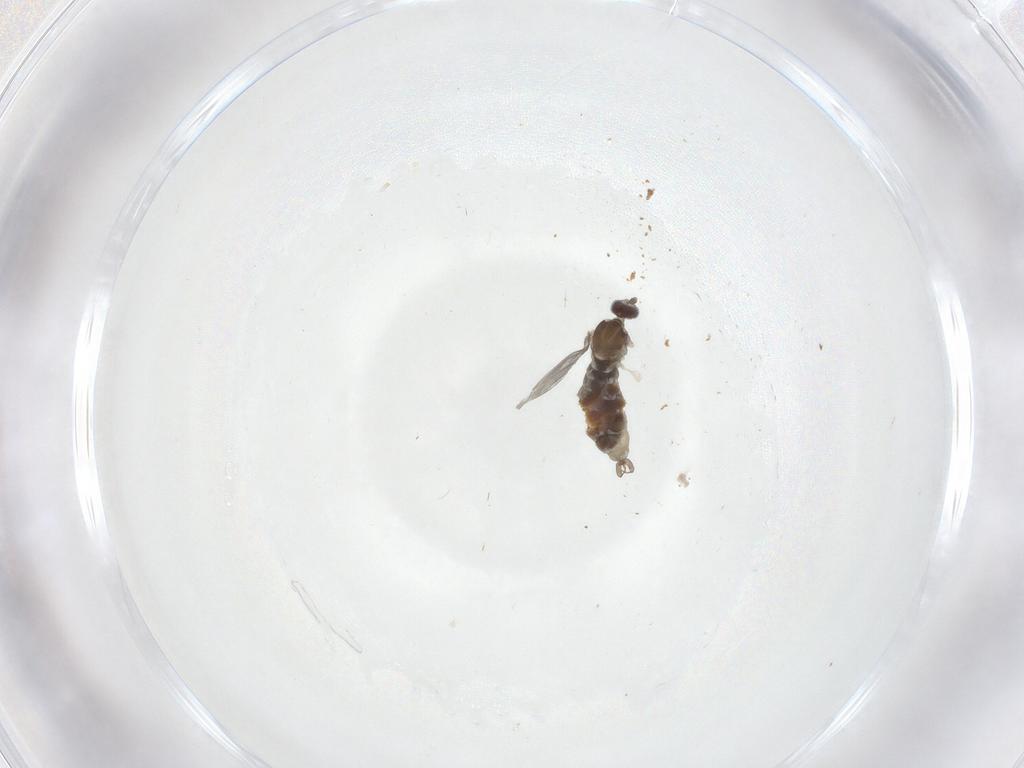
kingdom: Animalia
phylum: Arthropoda
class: Insecta
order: Diptera
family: Cecidomyiidae
